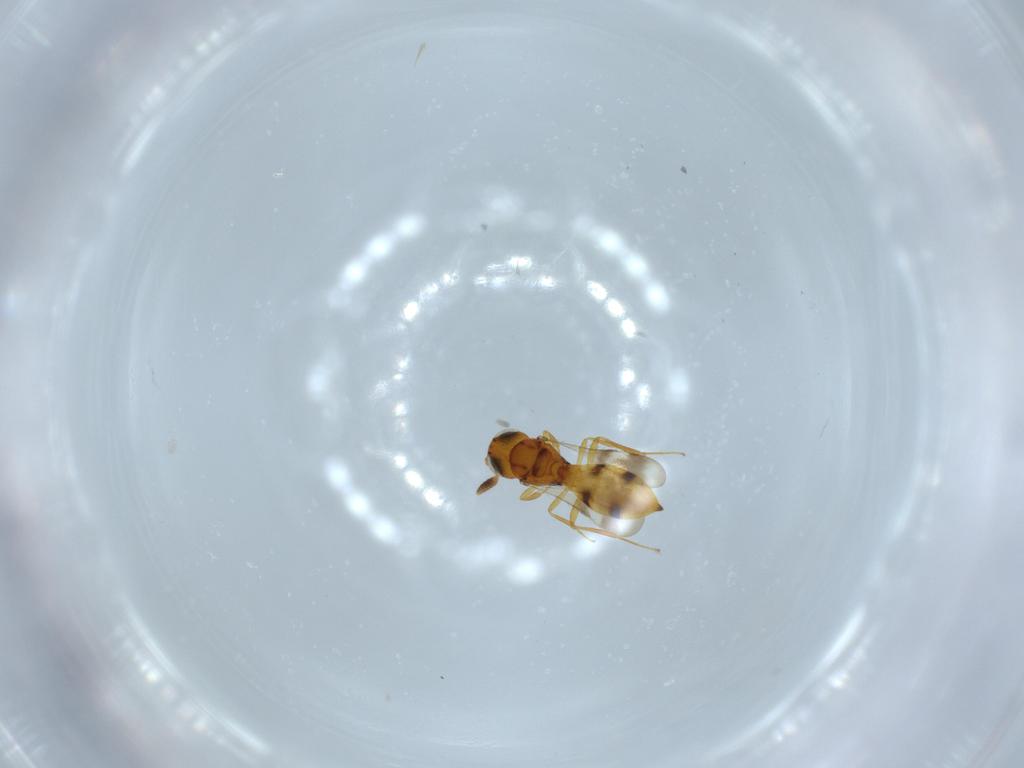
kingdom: Animalia
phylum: Arthropoda
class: Insecta
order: Hymenoptera
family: Scelionidae
